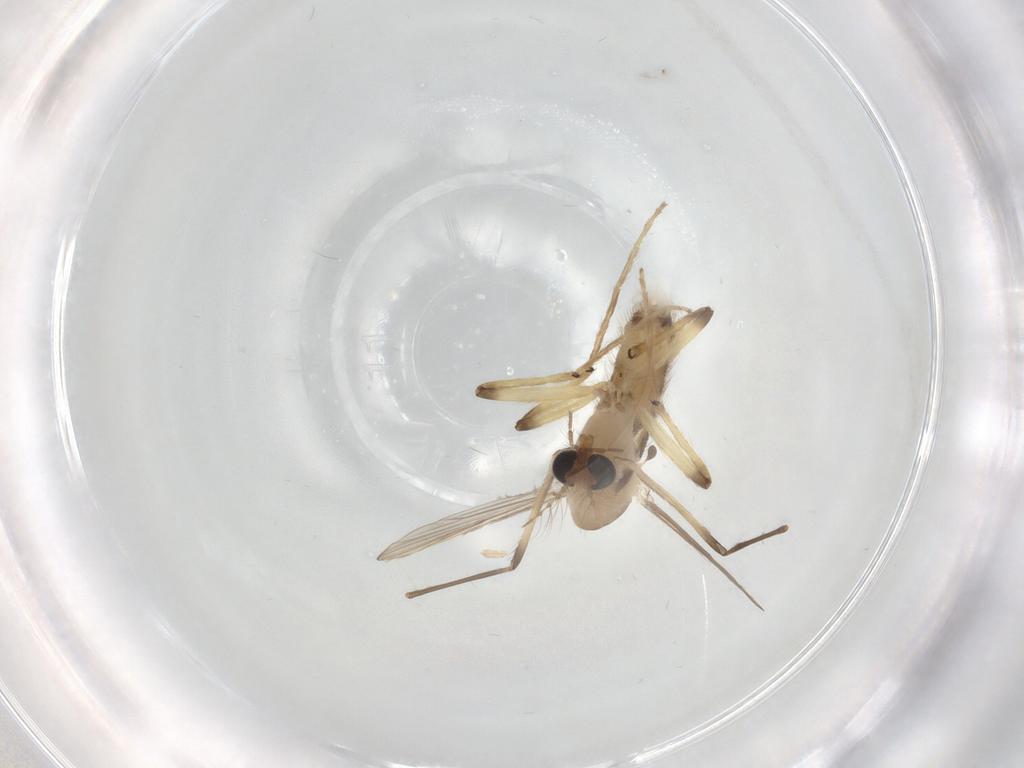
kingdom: Animalia
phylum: Arthropoda
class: Insecta
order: Diptera
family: Chironomidae
